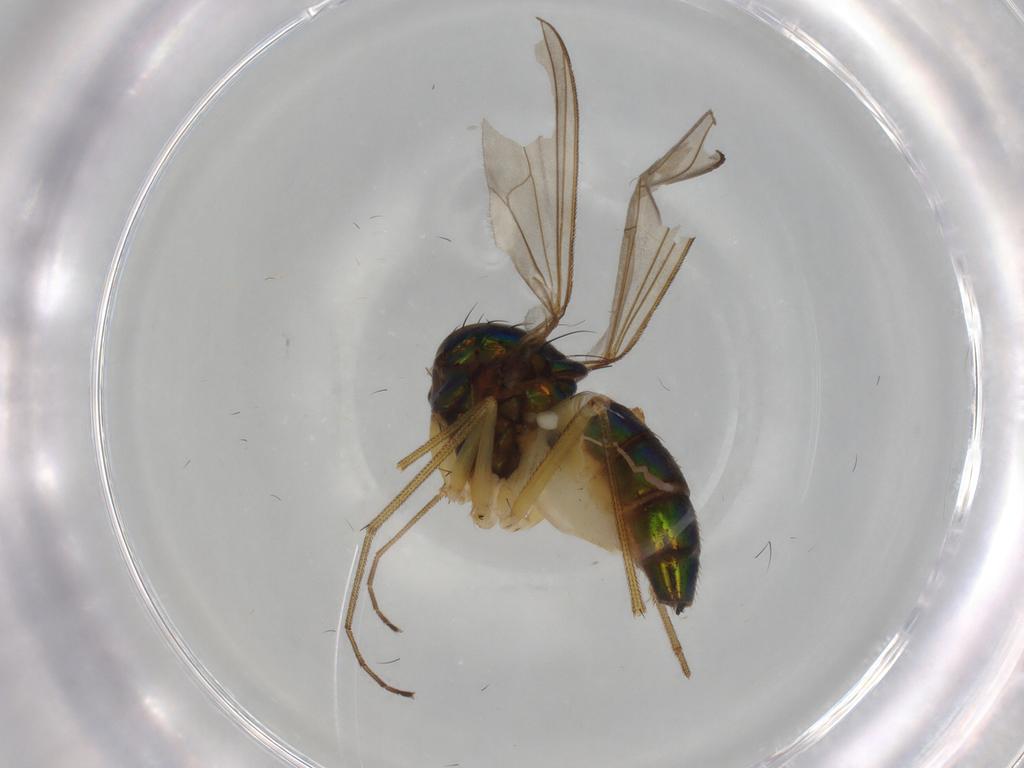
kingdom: Animalia
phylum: Arthropoda
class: Insecta
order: Diptera
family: Dolichopodidae
